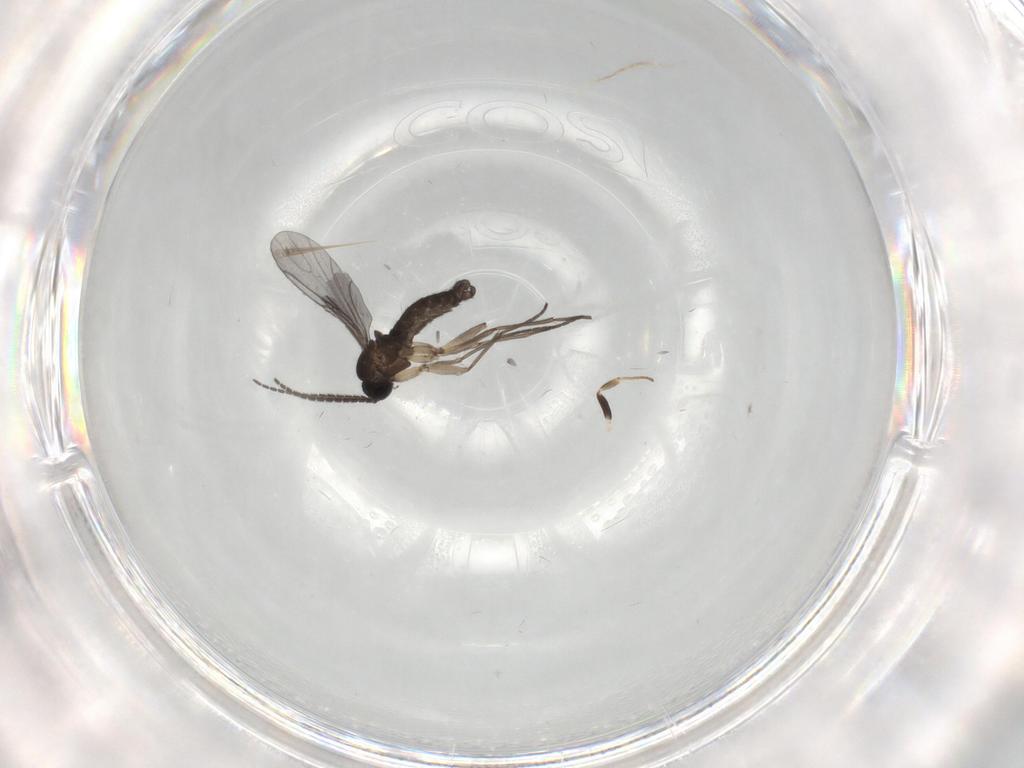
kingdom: Animalia
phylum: Arthropoda
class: Insecta
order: Diptera
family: Sciaridae
